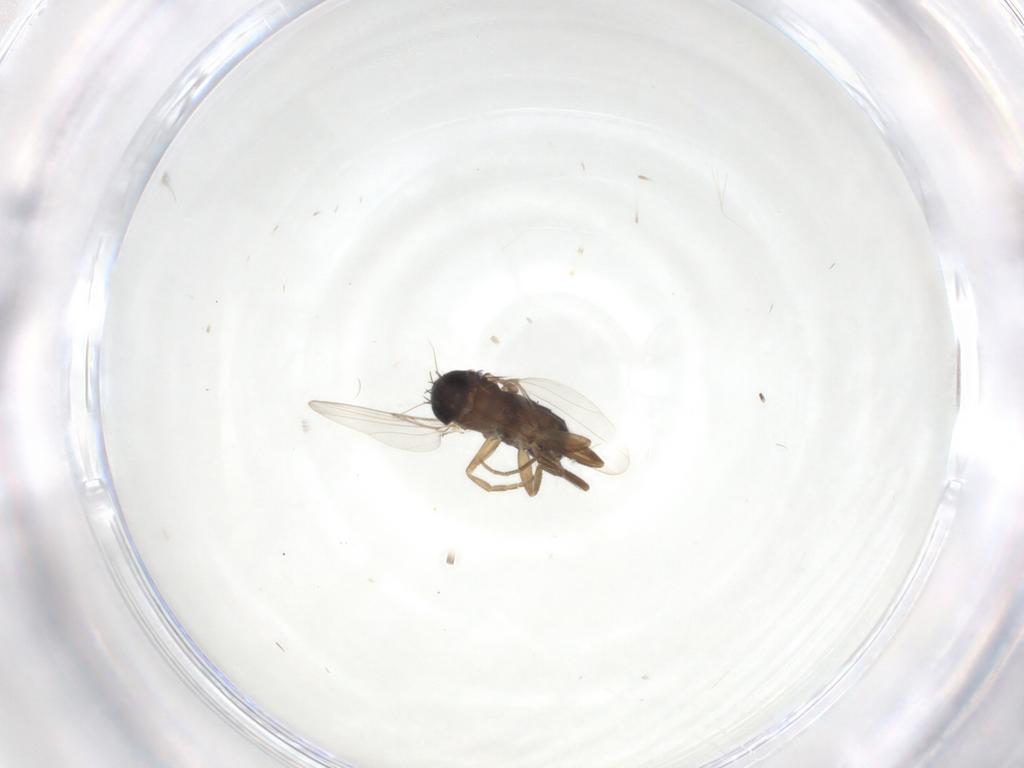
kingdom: Animalia
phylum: Arthropoda
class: Insecta
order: Diptera
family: Phoridae
